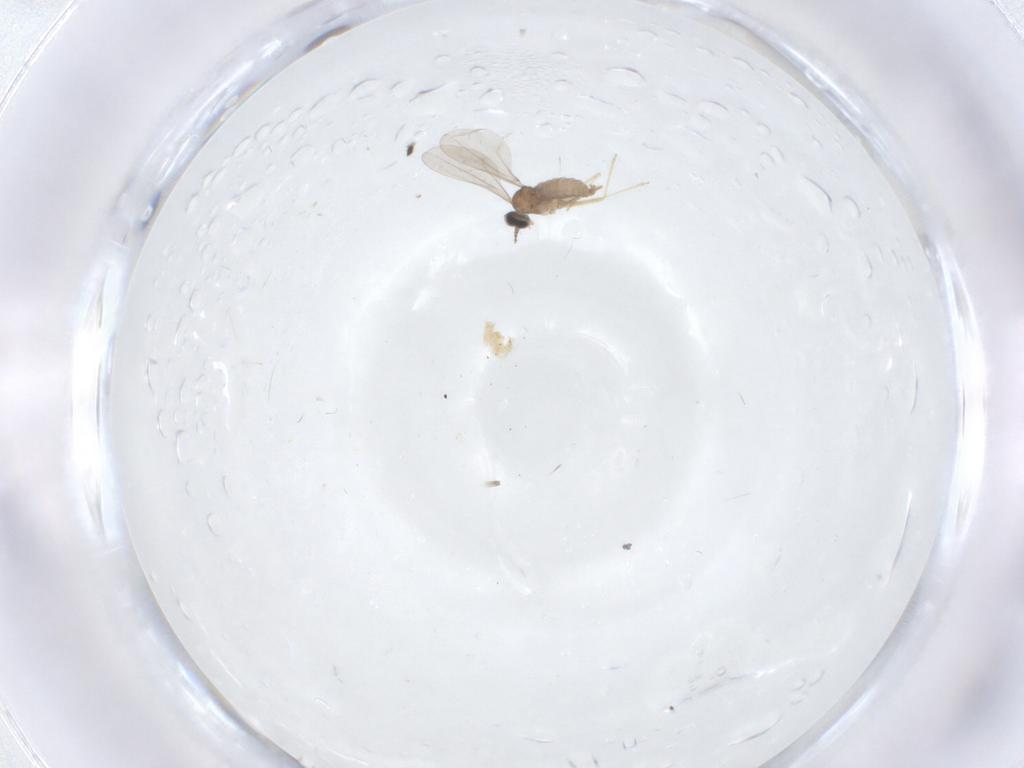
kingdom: Animalia
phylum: Arthropoda
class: Insecta
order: Diptera
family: Cecidomyiidae
